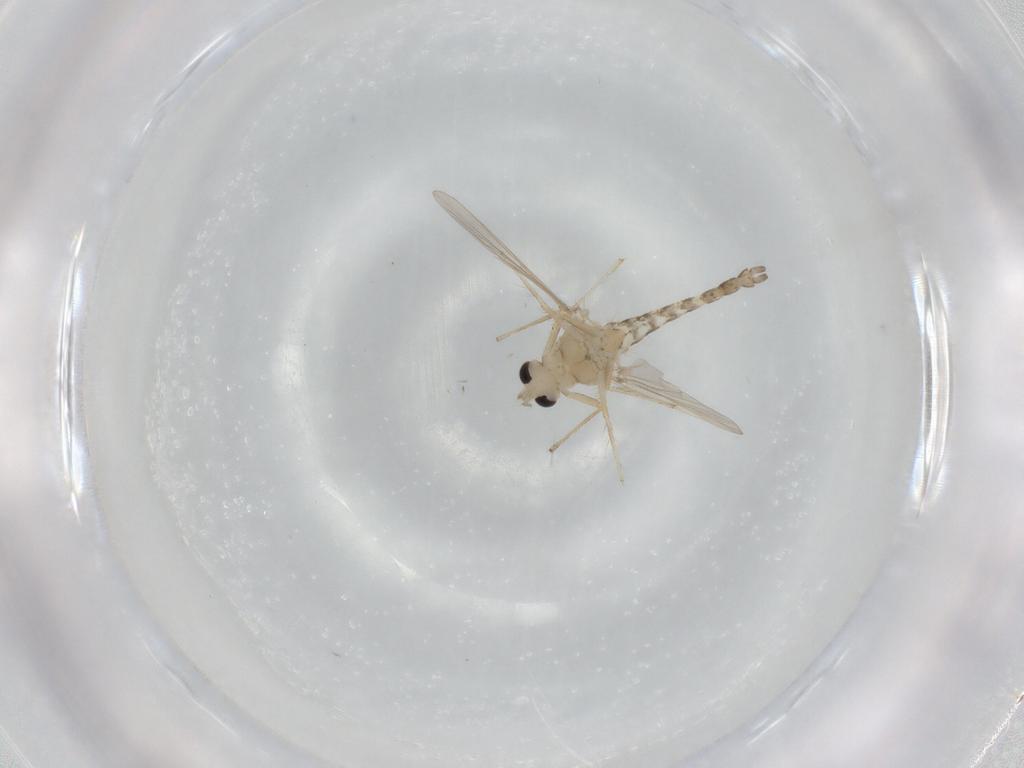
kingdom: Animalia
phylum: Arthropoda
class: Insecta
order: Diptera
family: Chironomidae
